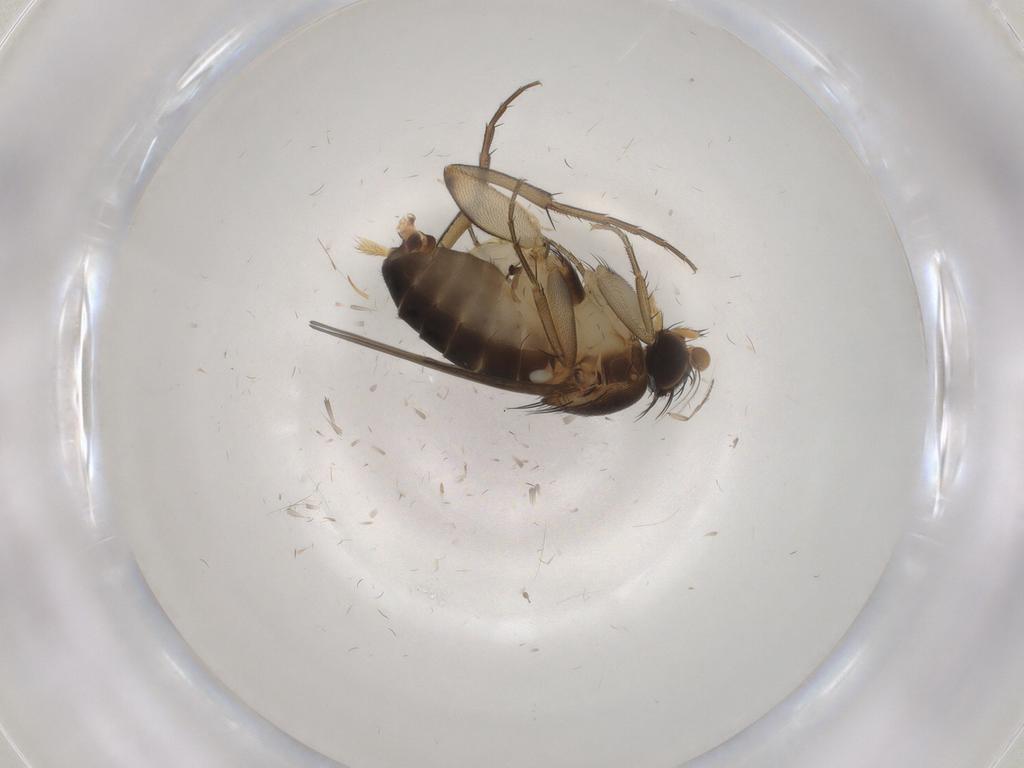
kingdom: Animalia
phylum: Arthropoda
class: Insecta
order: Diptera
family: Phoridae
